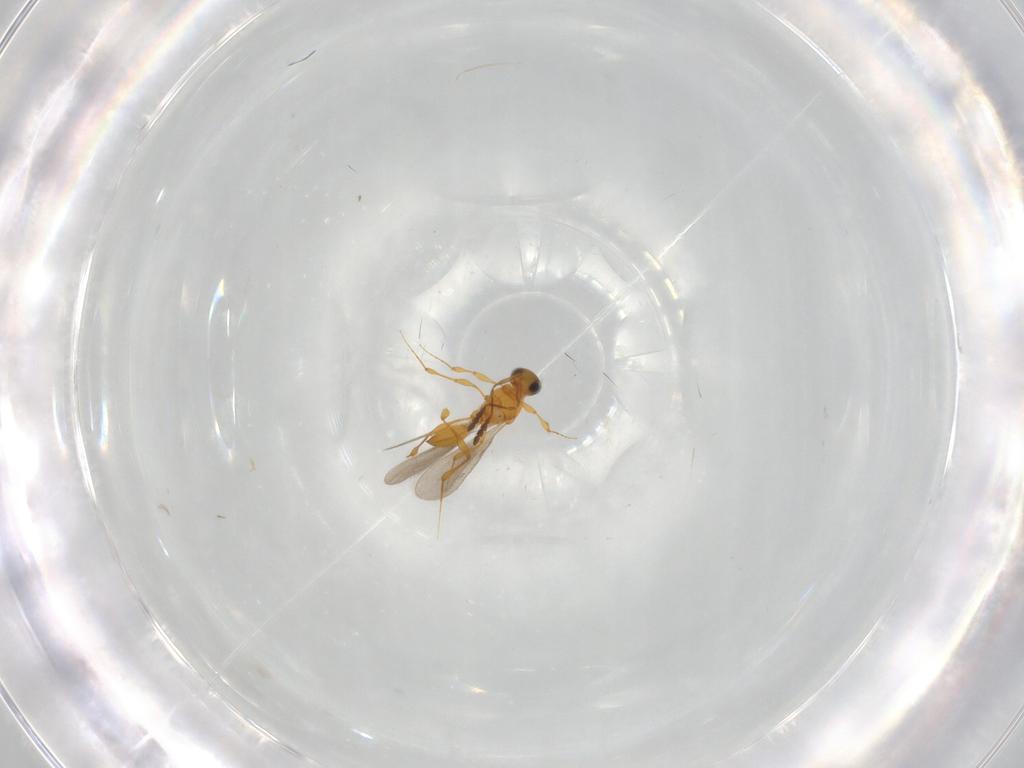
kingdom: Animalia
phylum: Arthropoda
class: Insecta
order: Hymenoptera
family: Platygastridae
